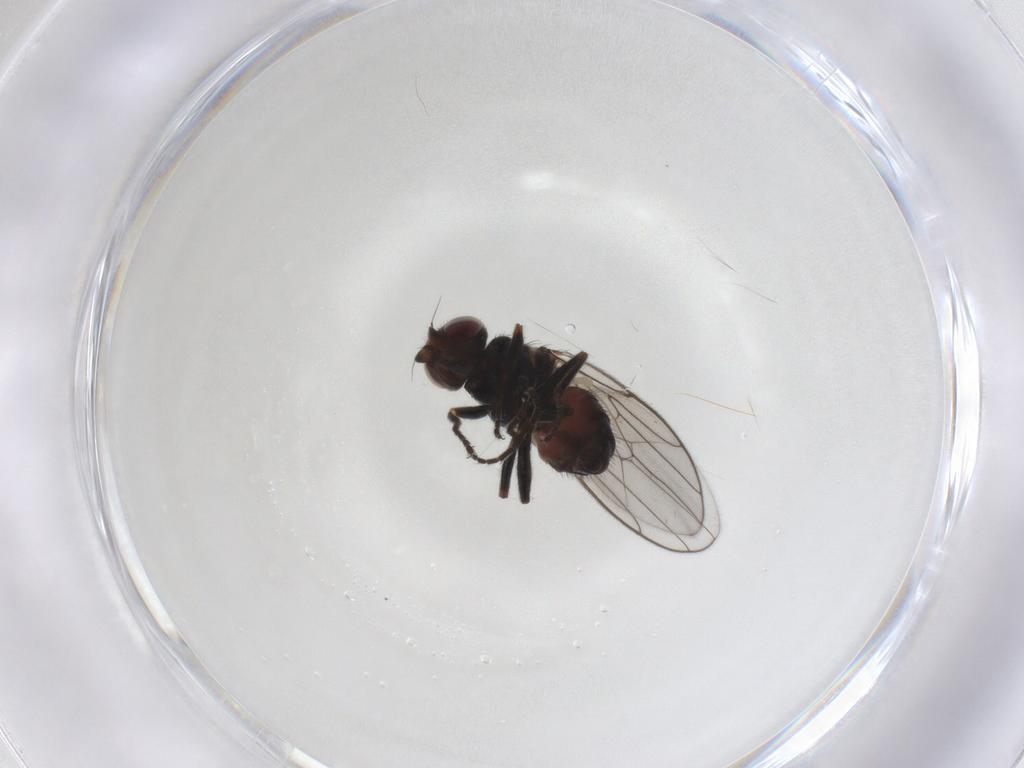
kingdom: Animalia
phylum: Arthropoda
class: Insecta
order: Diptera
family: Chloropidae
